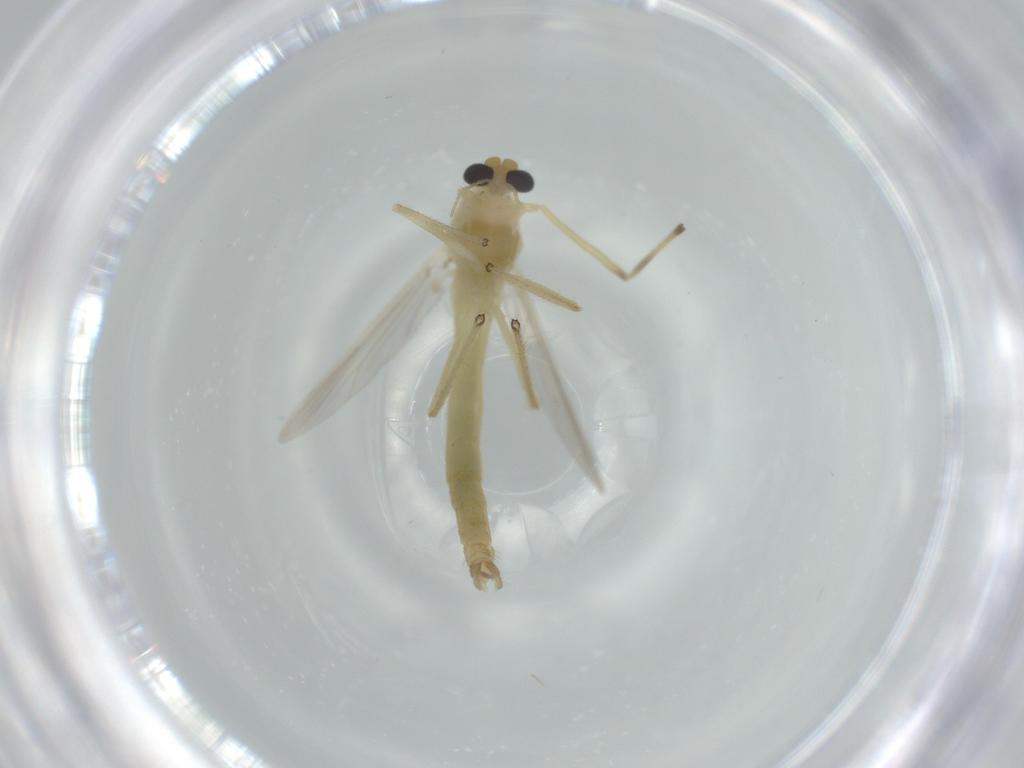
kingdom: Animalia
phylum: Arthropoda
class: Insecta
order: Diptera
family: Chironomidae
